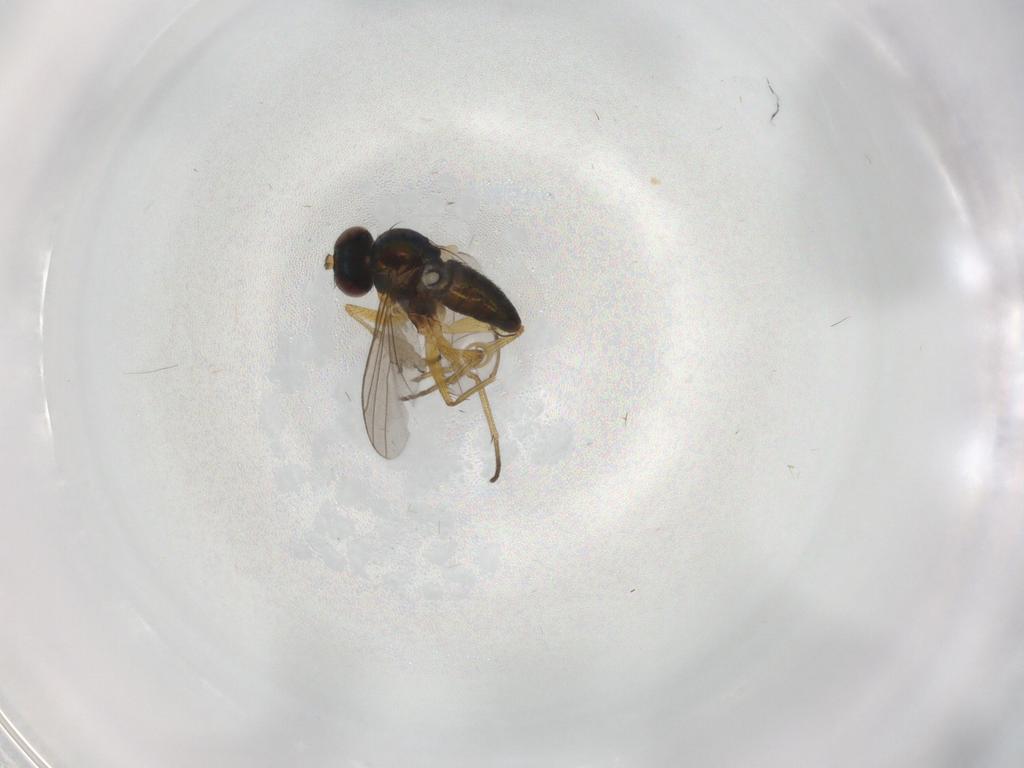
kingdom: Animalia
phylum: Arthropoda
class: Insecta
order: Diptera
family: Dolichopodidae
